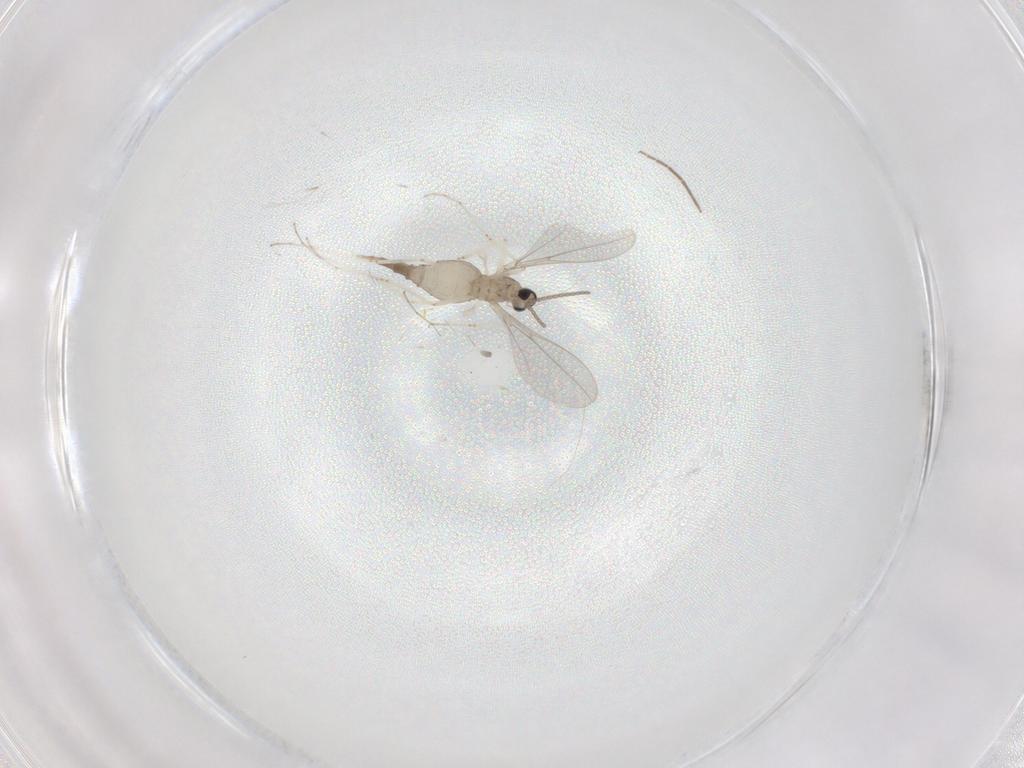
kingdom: Animalia
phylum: Arthropoda
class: Insecta
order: Diptera
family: Cecidomyiidae
